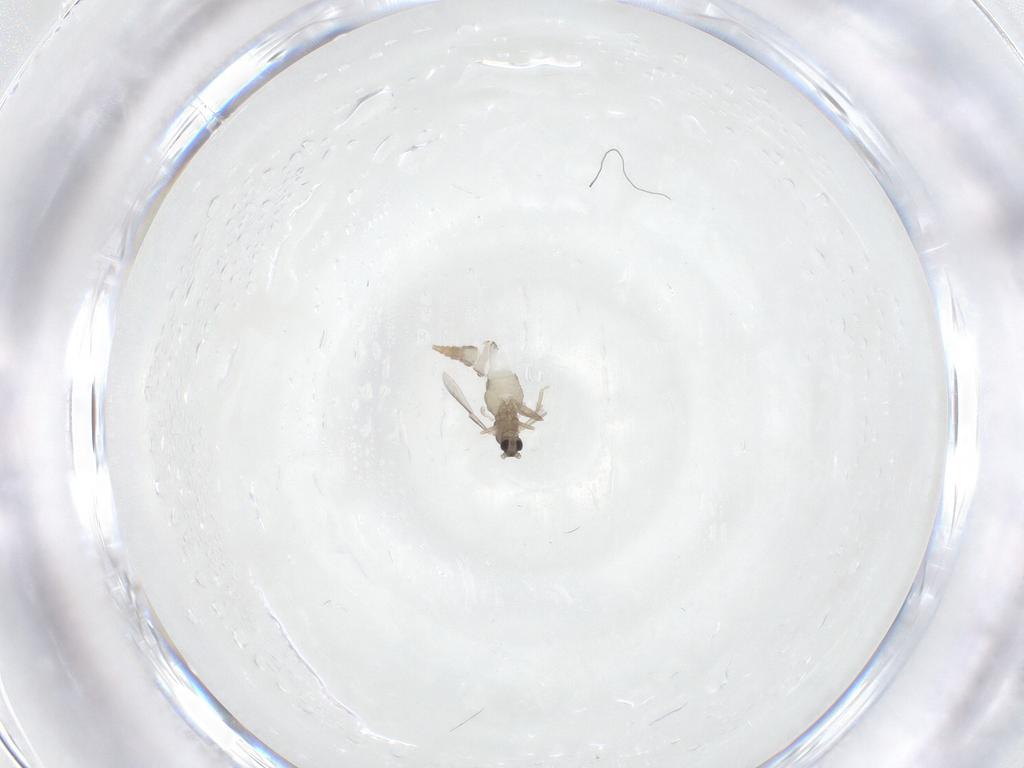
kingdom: Animalia
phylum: Arthropoda
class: Insecta
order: Diptera
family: Cecidomyiidae
